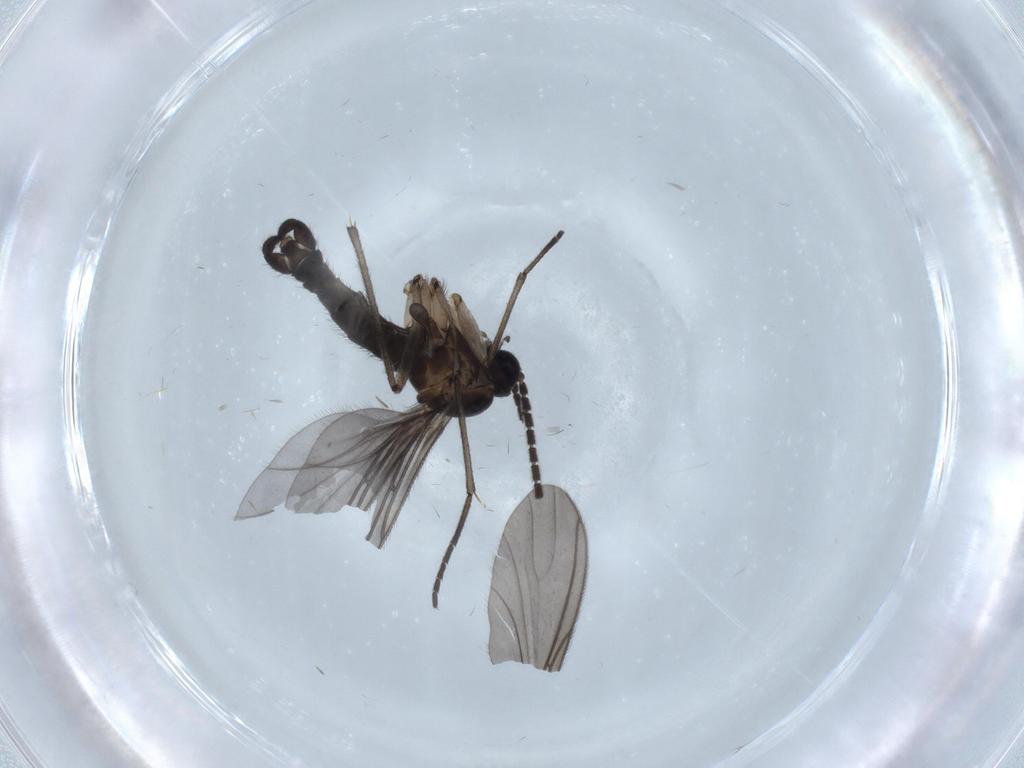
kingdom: Animalia
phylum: Arthropoda
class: Insecta
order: Diptera
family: Sciaridae
